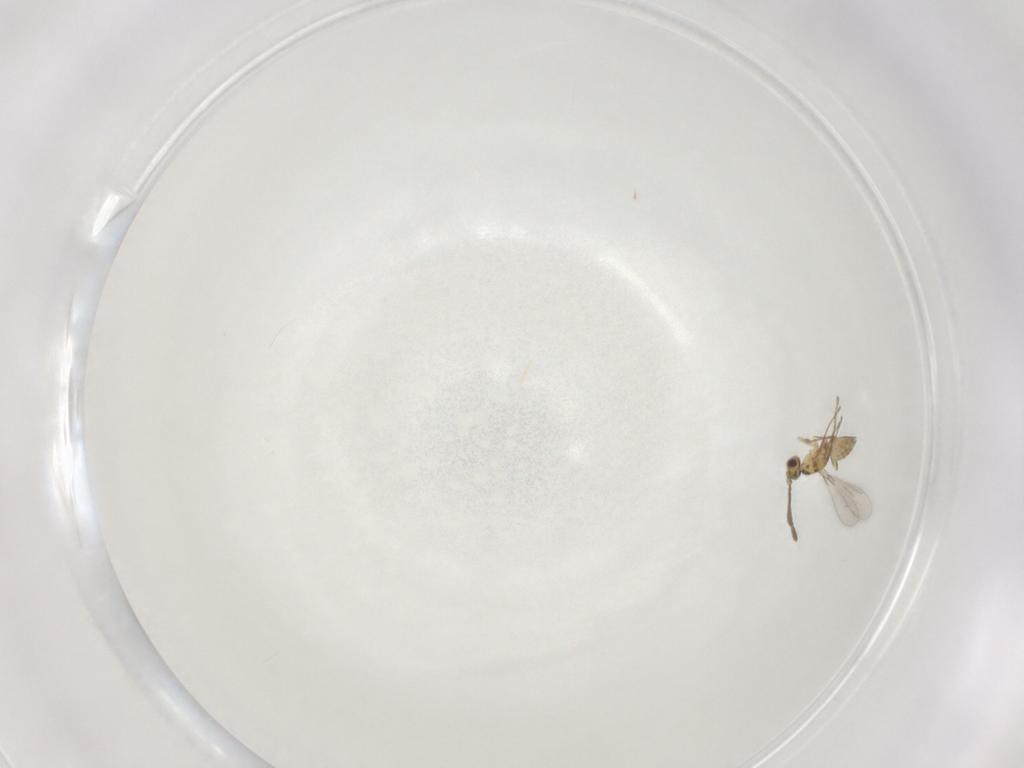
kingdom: Animalia
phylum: Arthropoda
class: Insecta
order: Hymenoptera
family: Mymaridae
